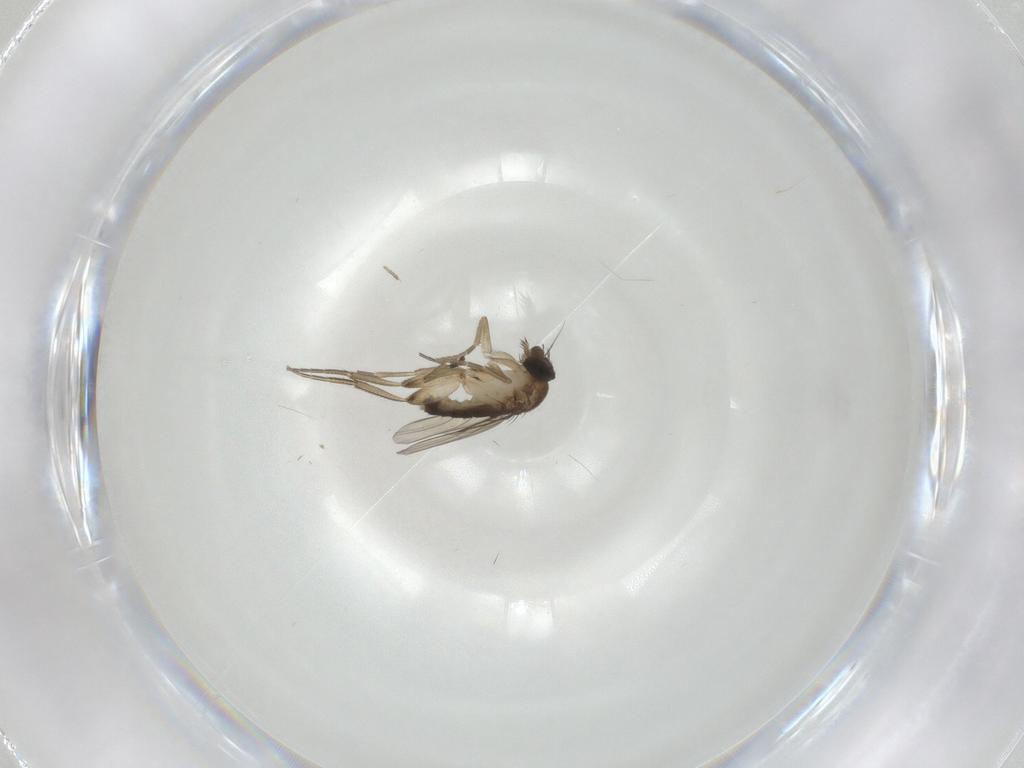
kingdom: Animalia
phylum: Arthropoda
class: Insecta
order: Diptera
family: Phoridae
